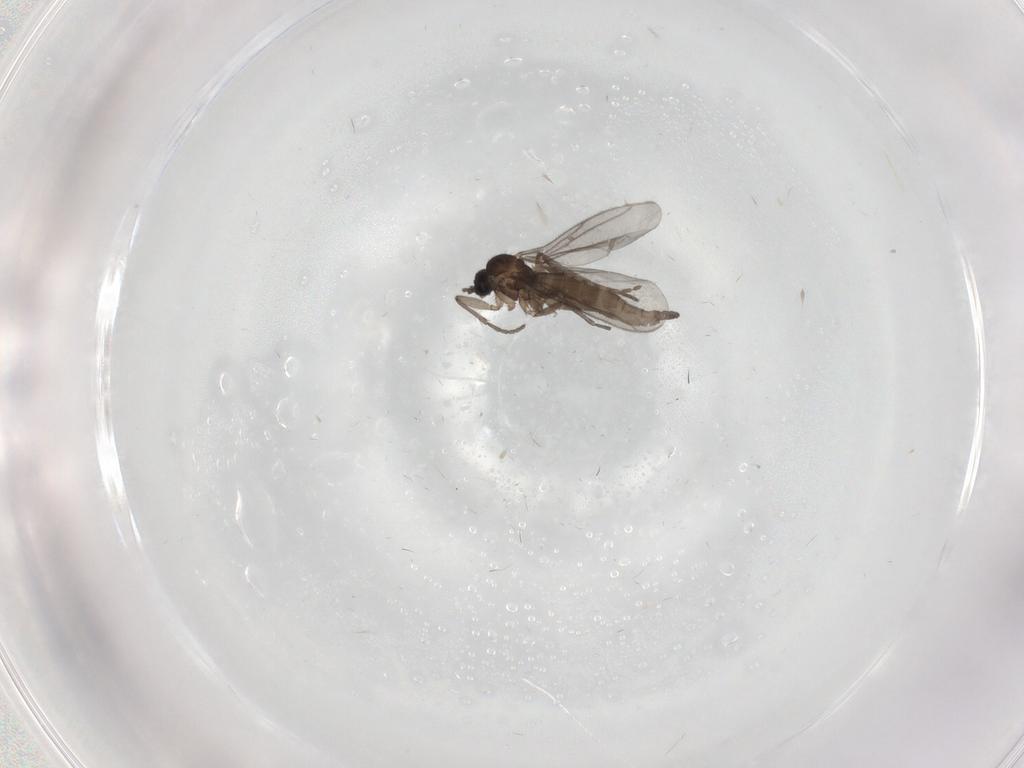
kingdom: Animalia
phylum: Arthropoda
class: Insecta
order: Diptera
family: Sciaridae
